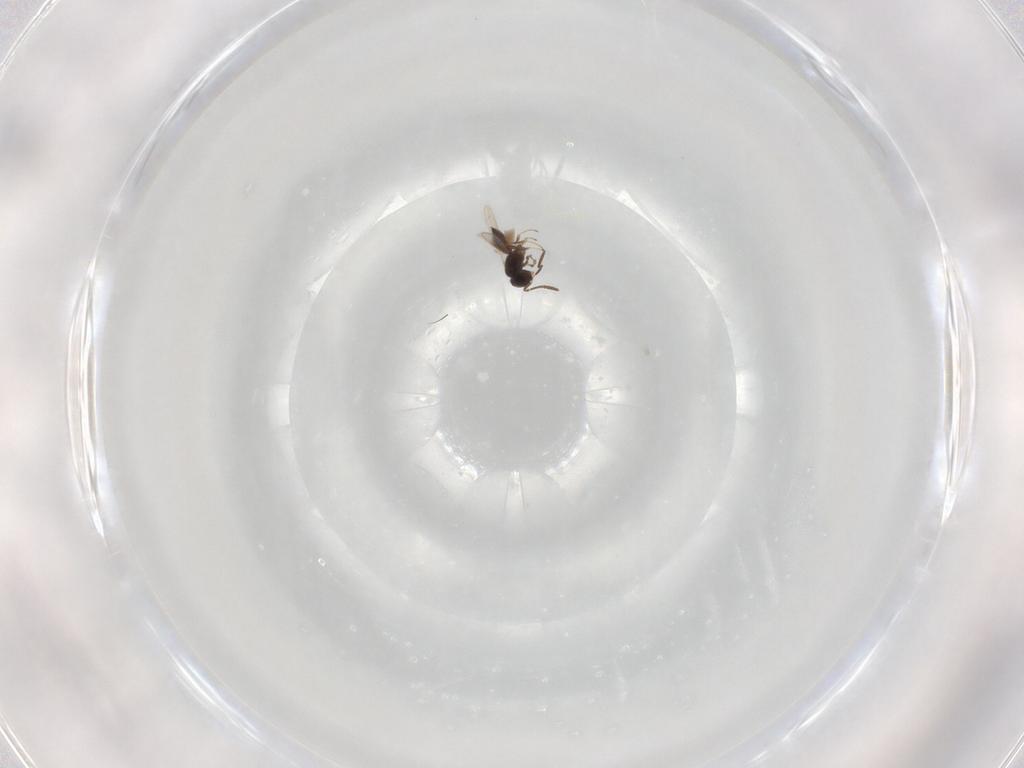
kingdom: Animalia
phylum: Arthropoda
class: Insecta
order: Hymenoptera
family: Scelionidae
